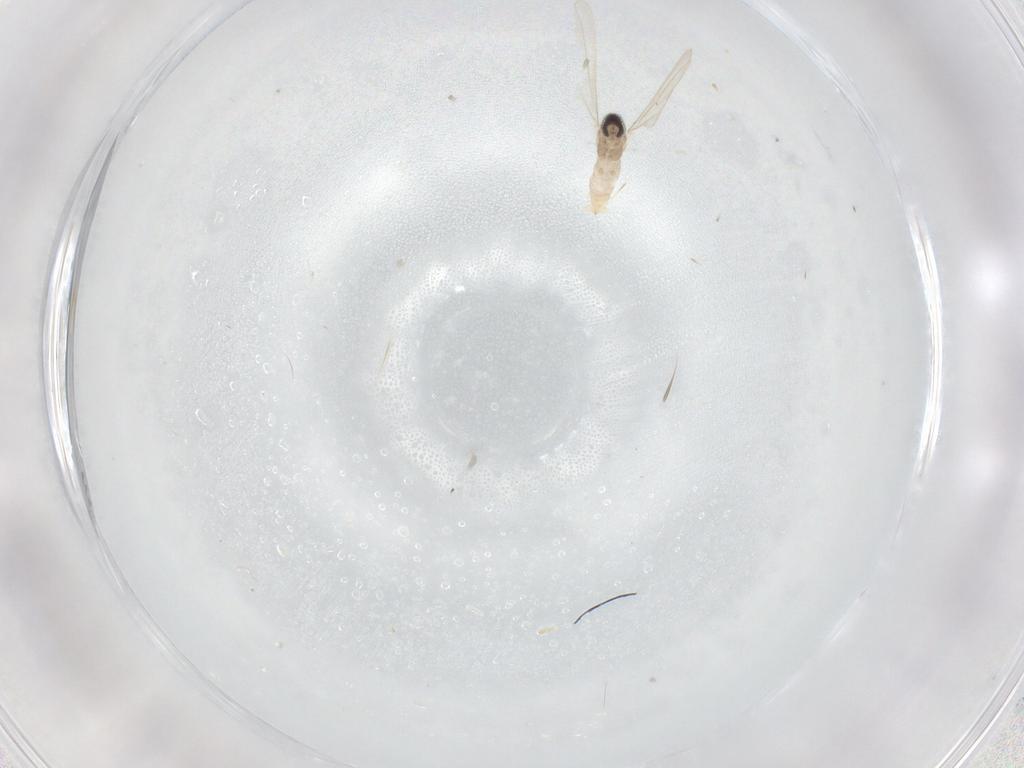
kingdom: Animalia
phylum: Arthropoda
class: Insecta
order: Diptera
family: Cecidomyiidae
